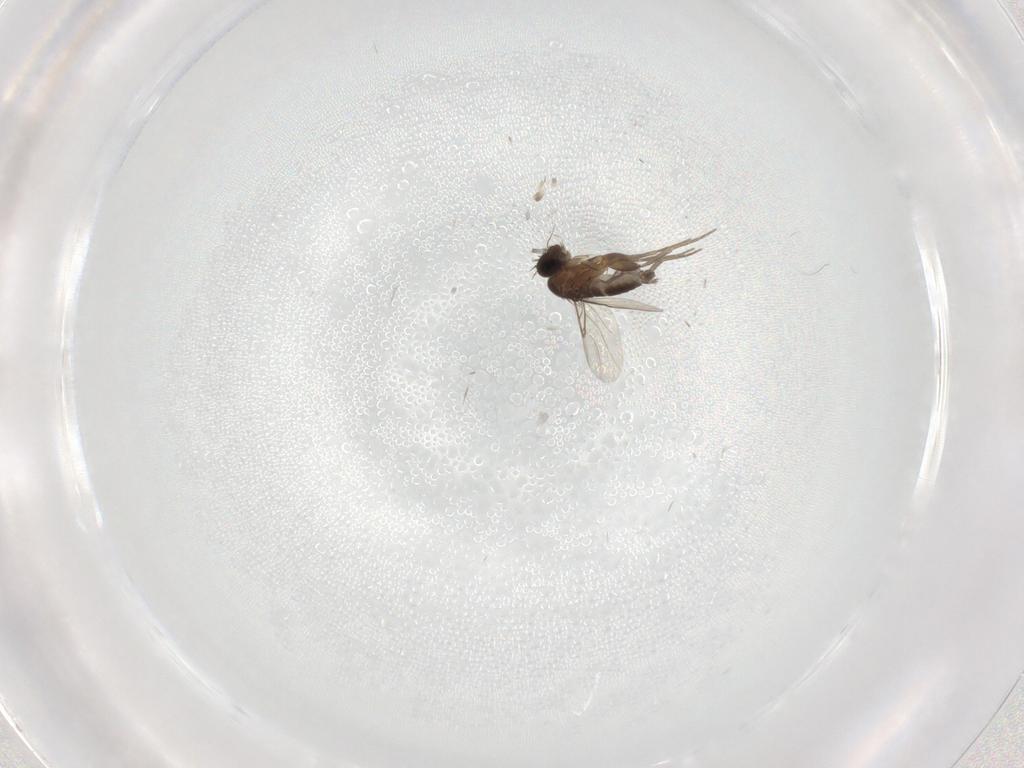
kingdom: Animalia
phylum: Arthropoda
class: Insecta
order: Diptera
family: Phoridae
